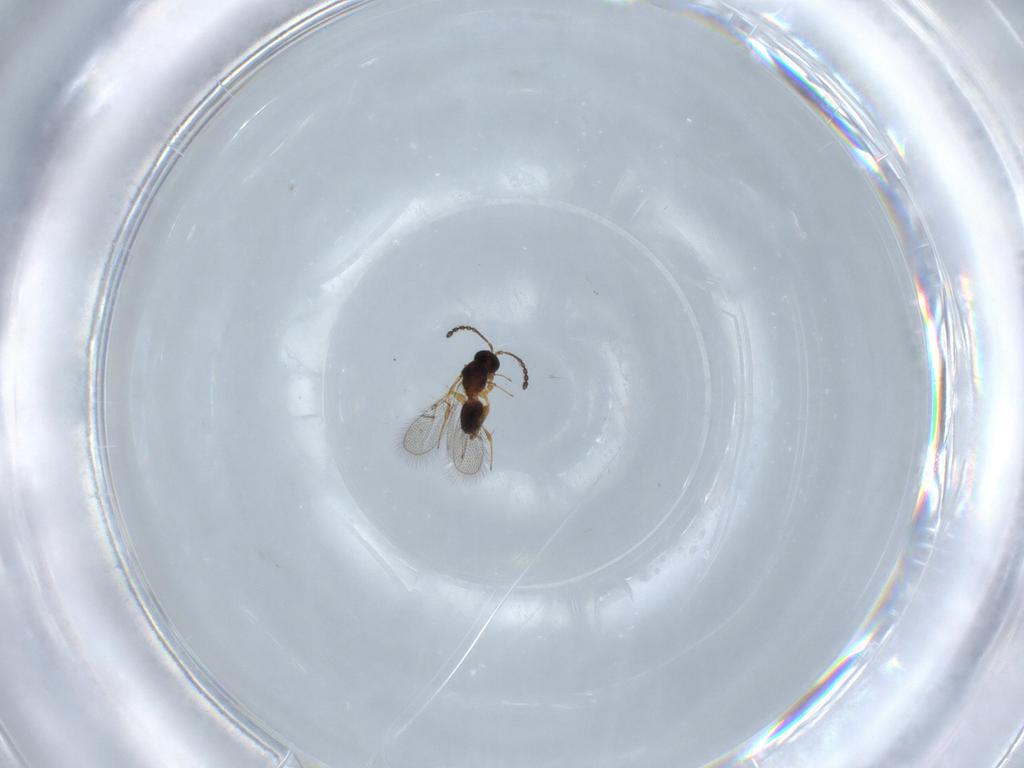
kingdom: Animalia
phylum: Arthropoda
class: Insecta
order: Hymenoptera
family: Figitidae
